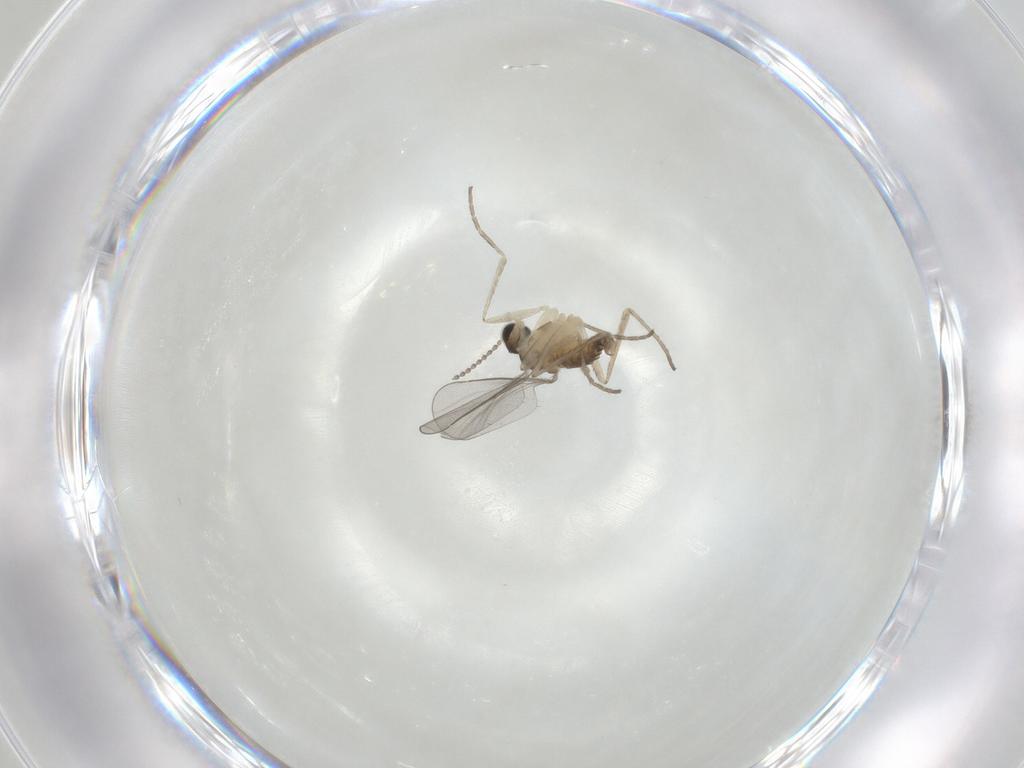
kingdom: Animalia
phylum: Arthropoda
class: Insecta
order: Diptera
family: Cecidomyiidae
